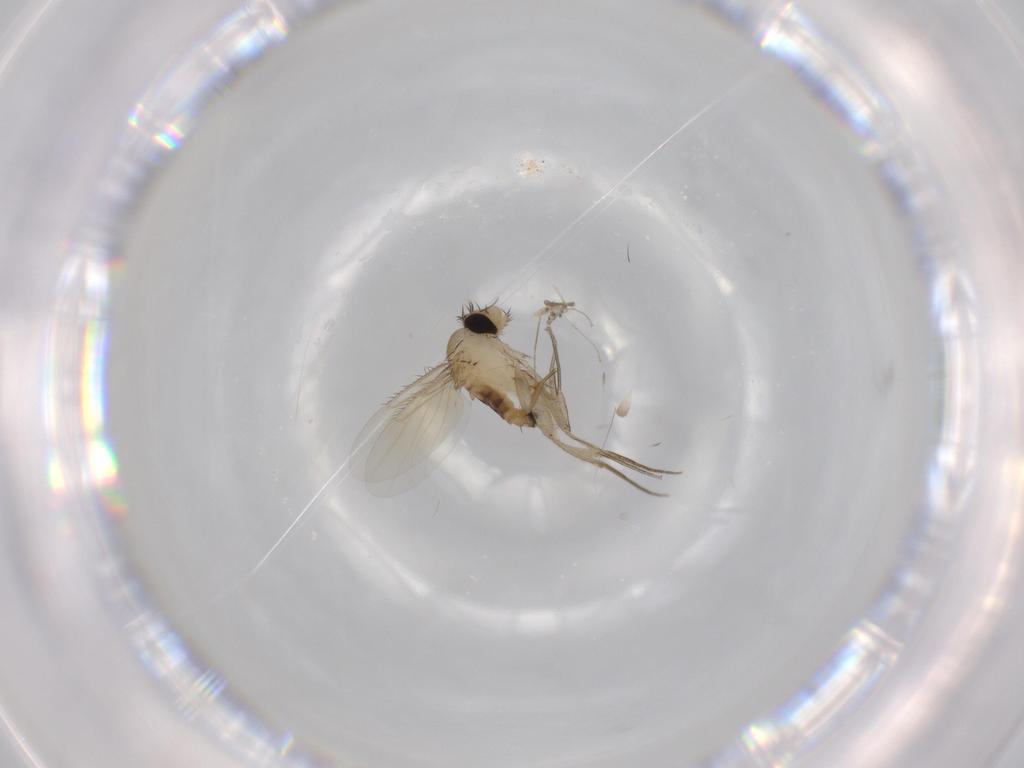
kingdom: Animalia
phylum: Arthropoda
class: Insecta
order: Diptera
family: Phoridae
